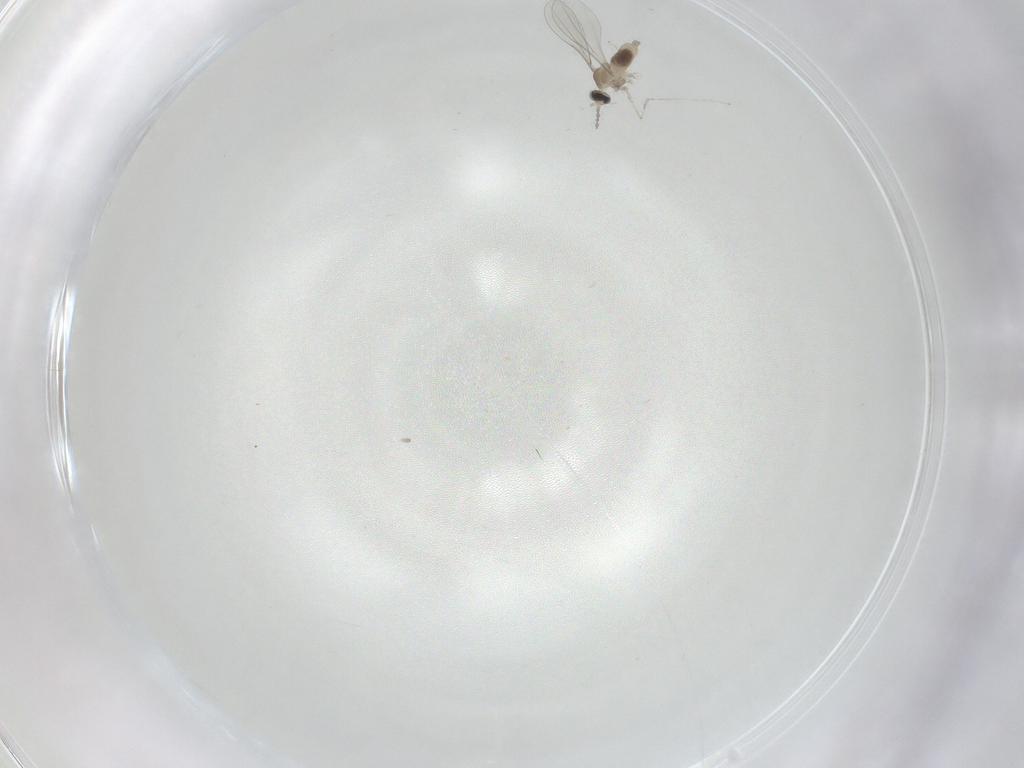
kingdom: Animalia
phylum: Arthropoda
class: Insecta
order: Diptera
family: Cecidomyiidae
